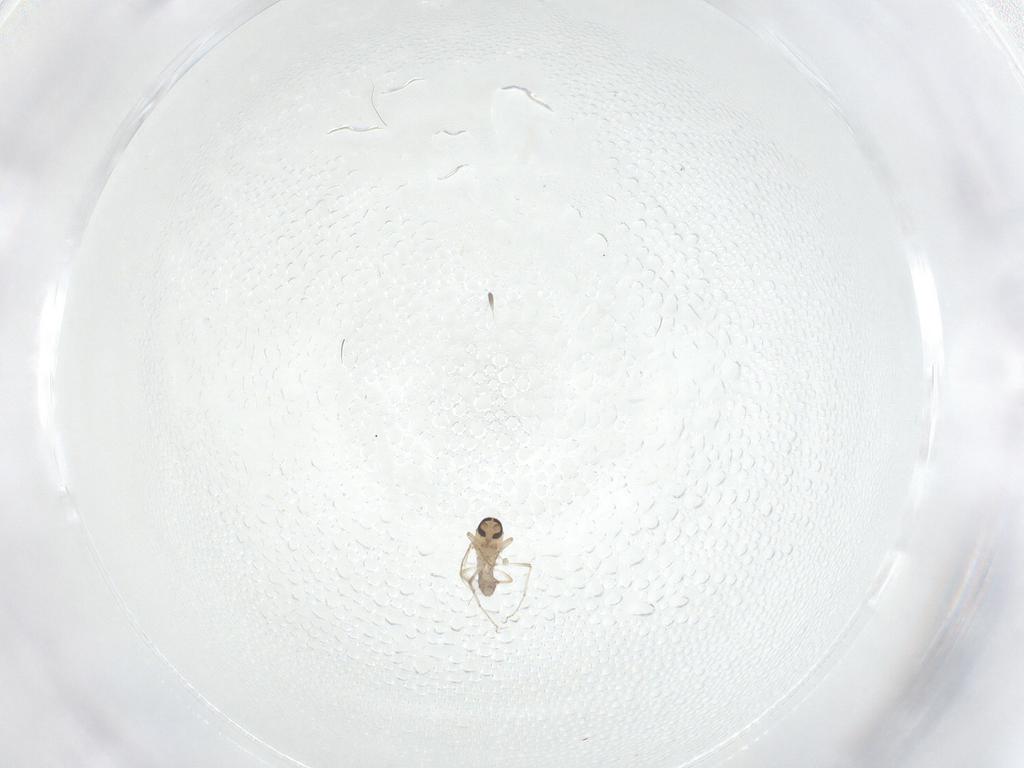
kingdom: Animalia
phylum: Arthropoda
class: Insecta
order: Diptera
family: Ceratopogonidae
